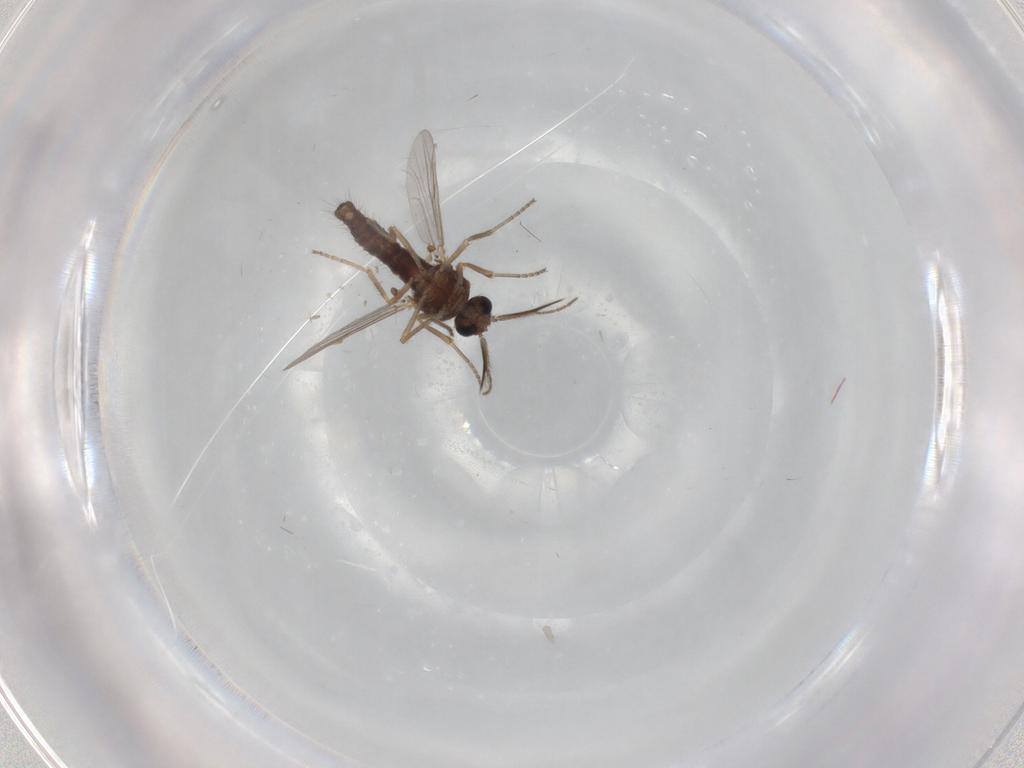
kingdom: Animalia
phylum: Arthropoda
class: Insecta
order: Diptera
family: Ceratopogonidae
